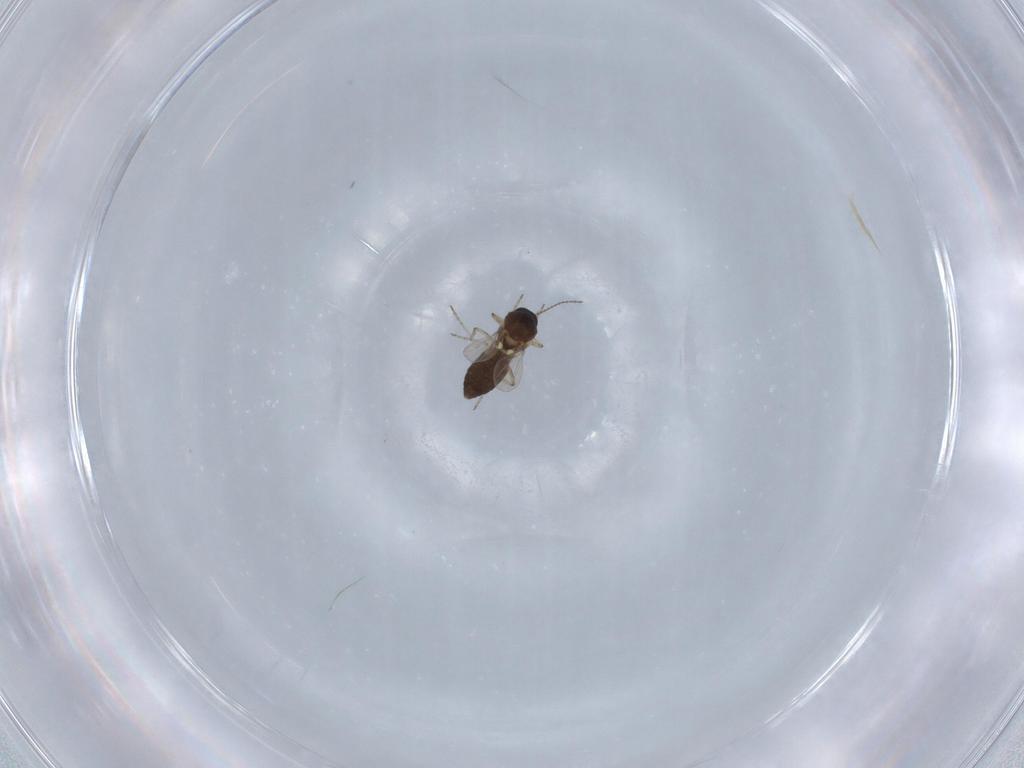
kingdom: Animalia
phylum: Arthropoda
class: Insecta
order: Diptera
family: Ceratopogonidae
